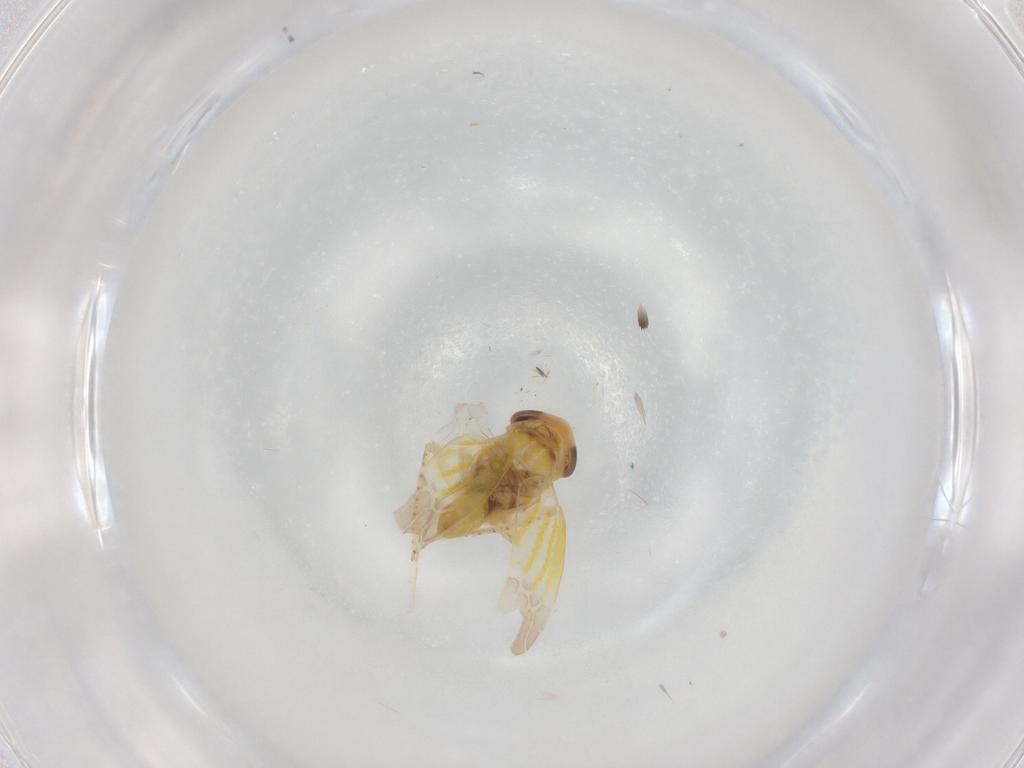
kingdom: Animalia
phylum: Arthropoda
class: Insecta
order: Hemiptera
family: Cicadellidae
